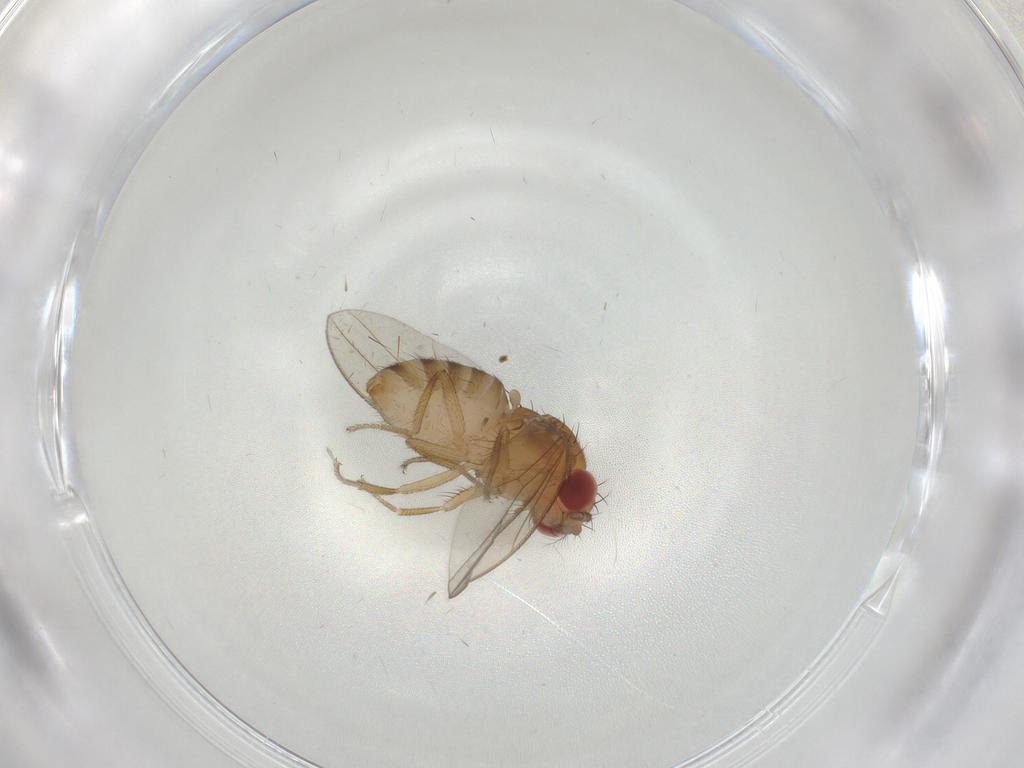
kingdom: Animalia
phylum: Arthropoda
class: Insecta
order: Diptera
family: Drosophilidae
